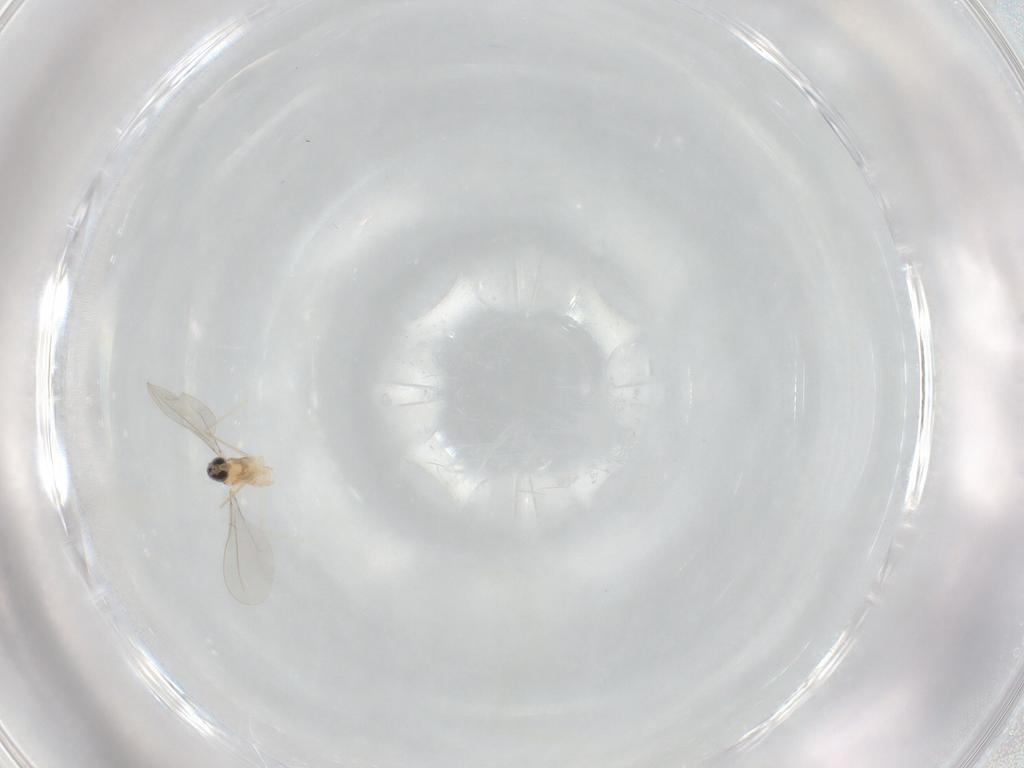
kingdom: Animalia
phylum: Arthropoda
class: Insecta
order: Diptera
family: Cecidomyiidae
